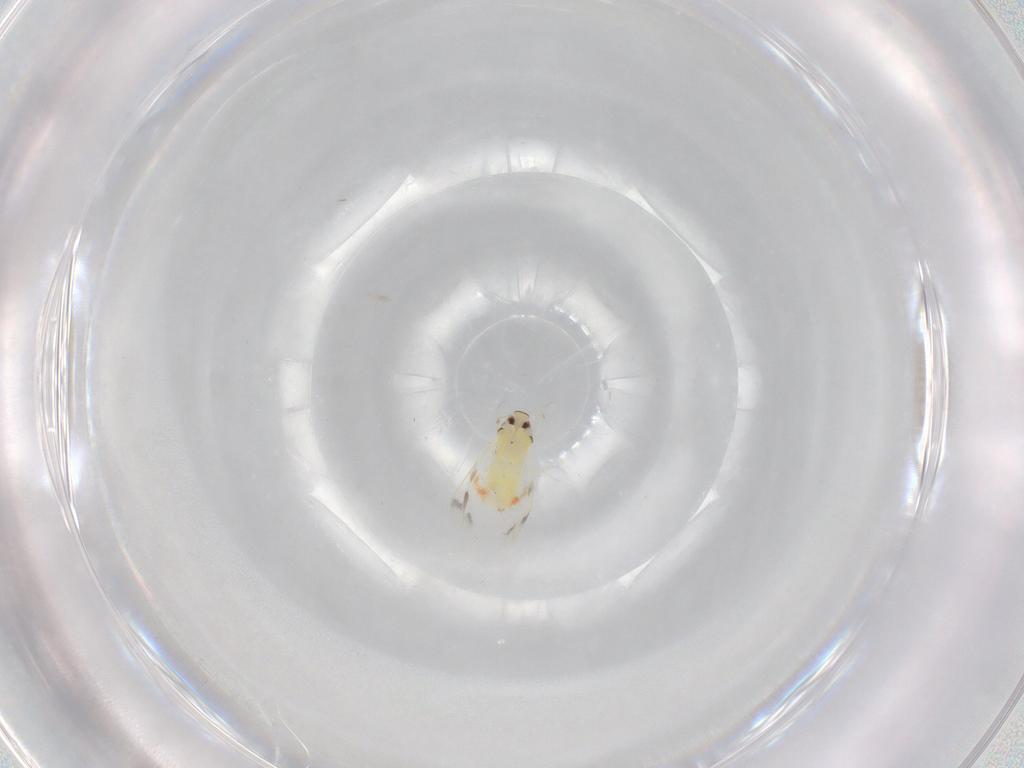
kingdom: Animalia
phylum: Arthropoda
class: Insecta
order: Hemiptera
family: Aleyrodidae
